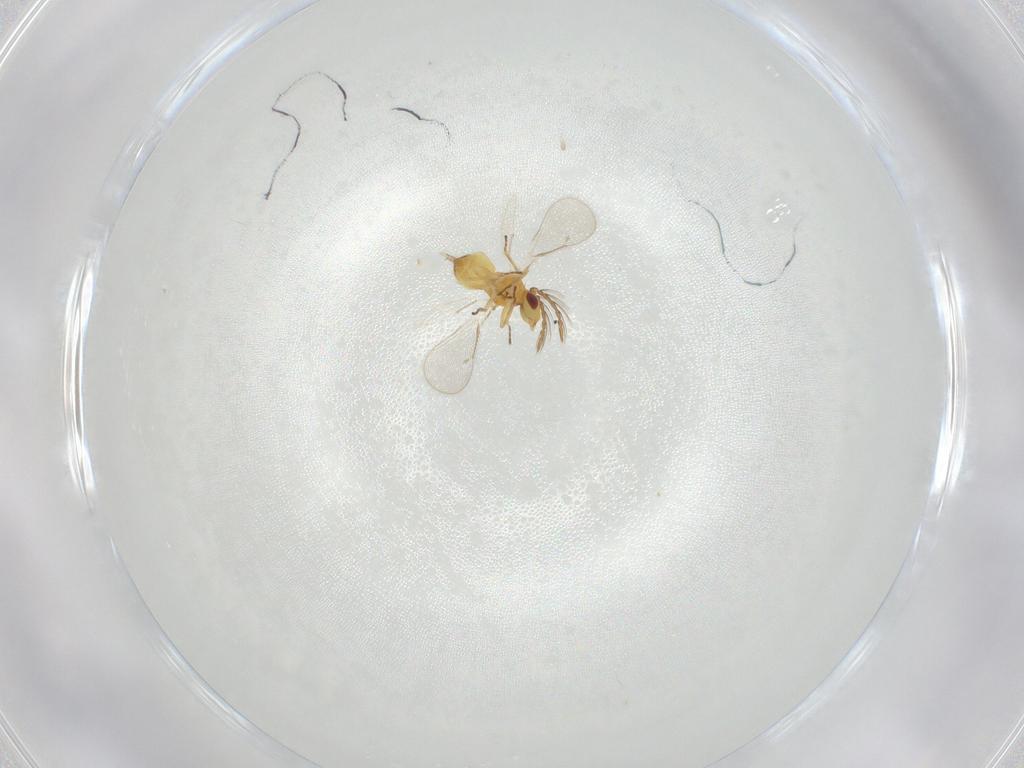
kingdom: Animalia
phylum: Arthropoda
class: Insecta
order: Hymenoptera
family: Eulophidae
